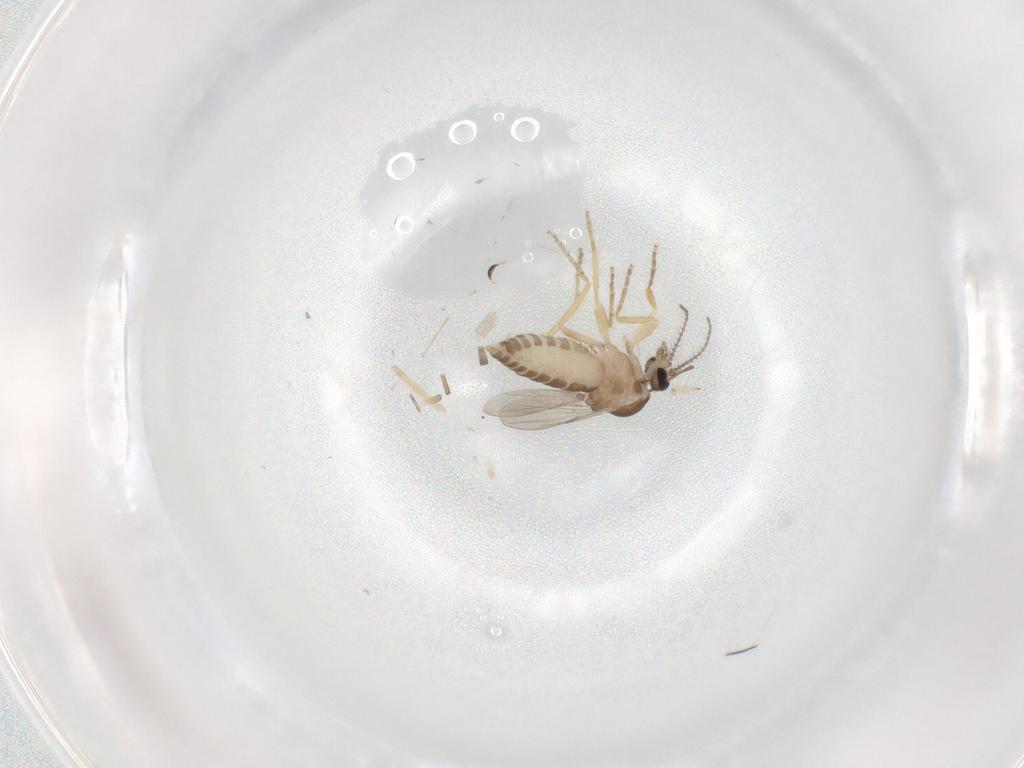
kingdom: Animalia
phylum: Arthropoda
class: Insecta
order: Diptera
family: Ceratopogonidae
